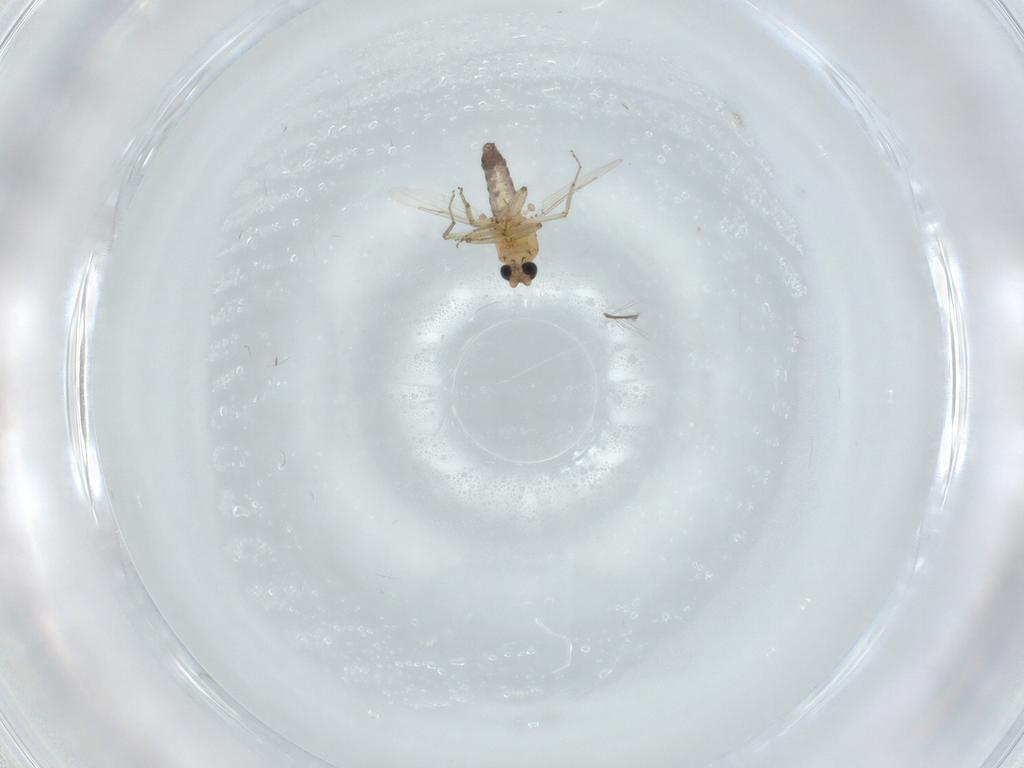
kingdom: Animalia
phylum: Arthropoda
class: Insecta
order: Diptera
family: Ceratopogonidae
